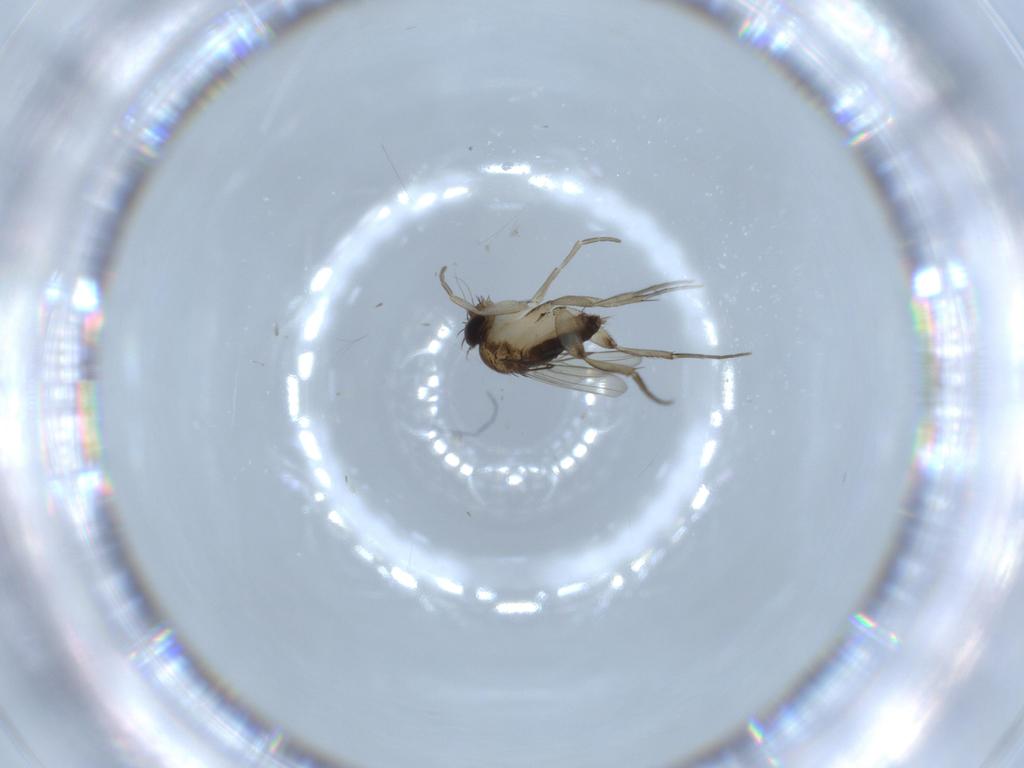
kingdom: Animalia
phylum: Arthropoda
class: Insecta
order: Diptera
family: Phoridae
